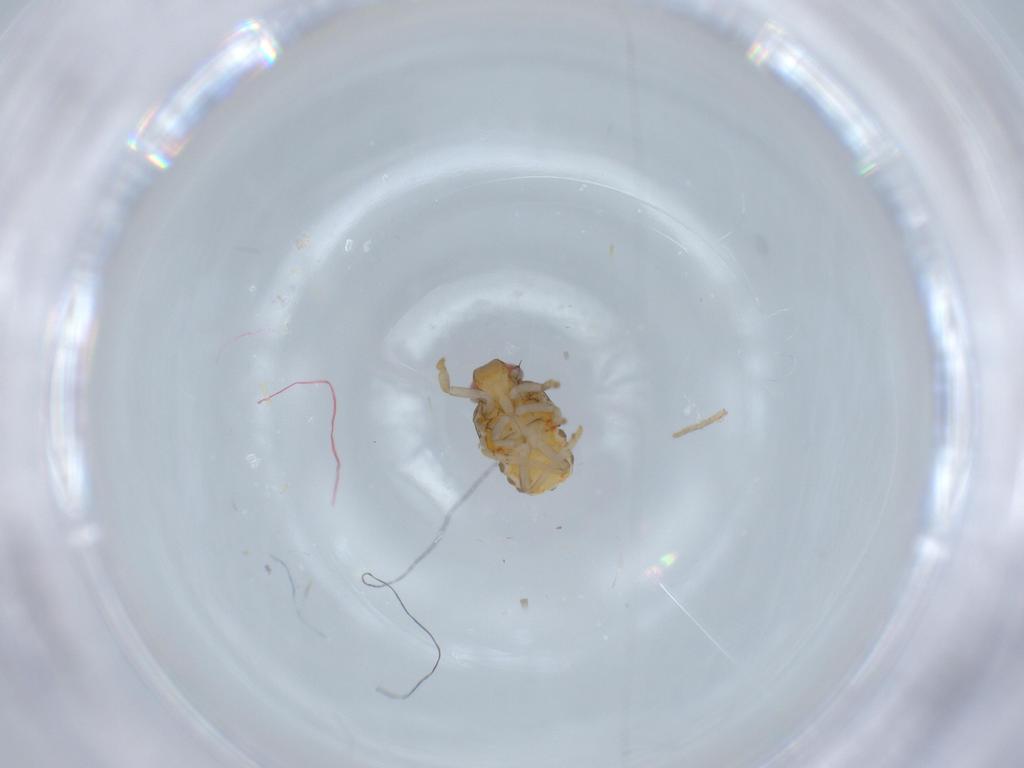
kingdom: Animalia
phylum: Arthropoda
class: Insecta
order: Hemiptera
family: Issidae
